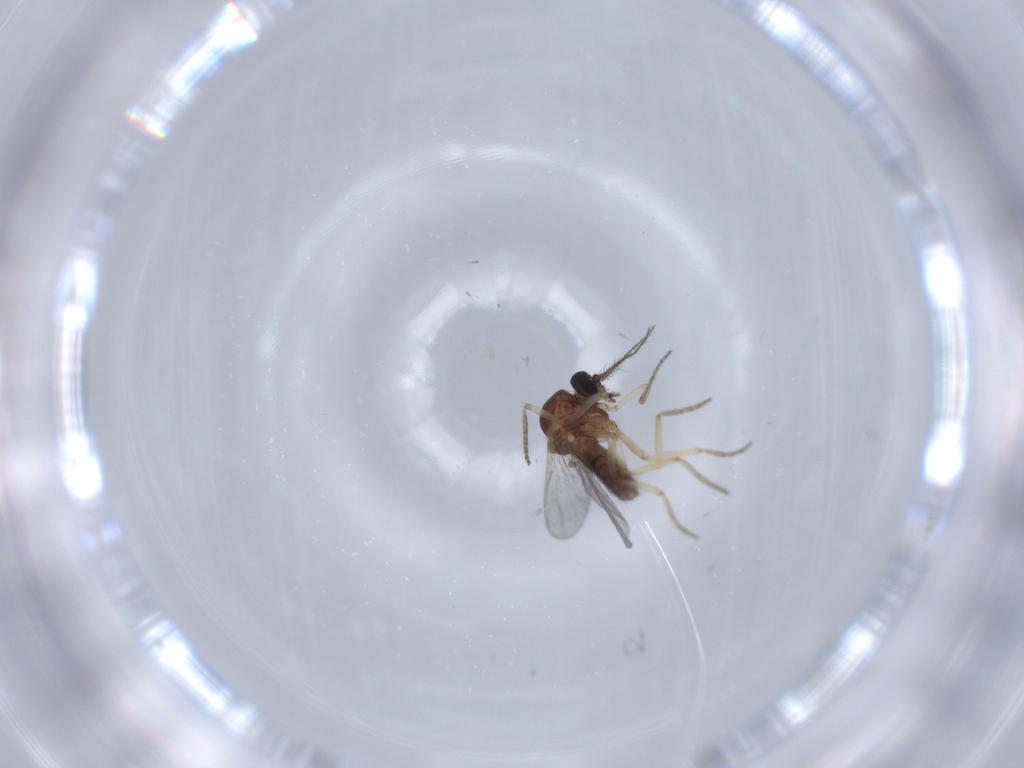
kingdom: Animalia
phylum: Arthropoda
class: Insecta
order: Diptera
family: Ceratopogonidae
